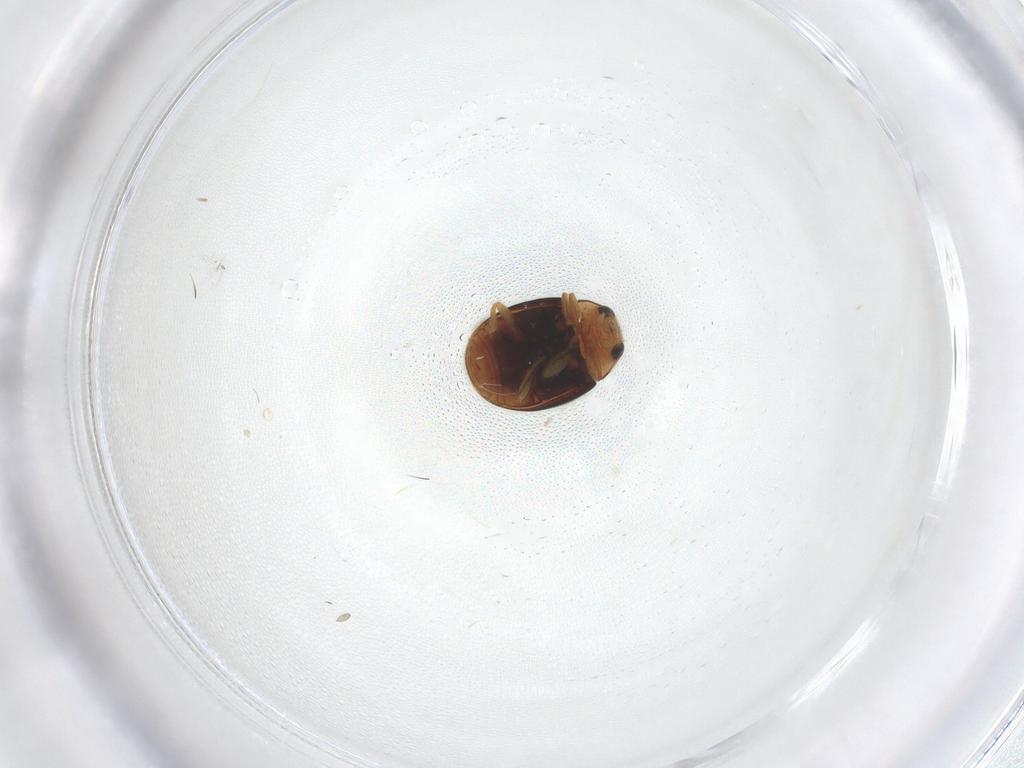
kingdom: Animalia
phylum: Arthropoda
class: Insecta
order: Coleoptera
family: Coccinellidae
